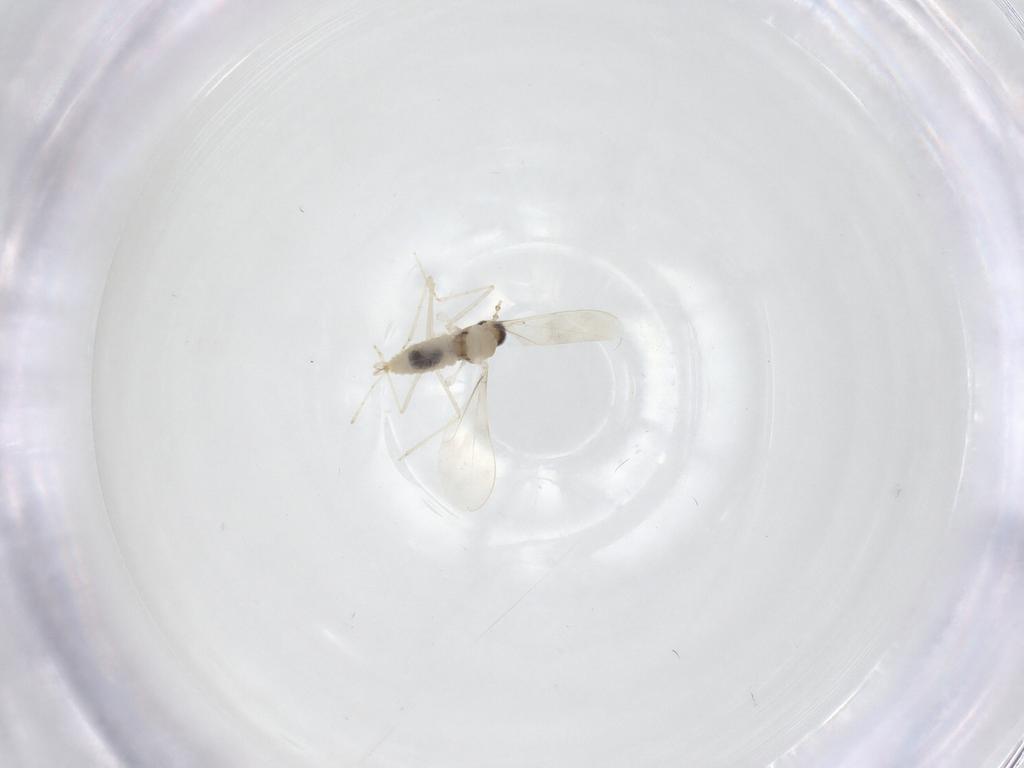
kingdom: Animalia
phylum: Arthropoda
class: Insecta
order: Diptera
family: Cecidomyiidae
